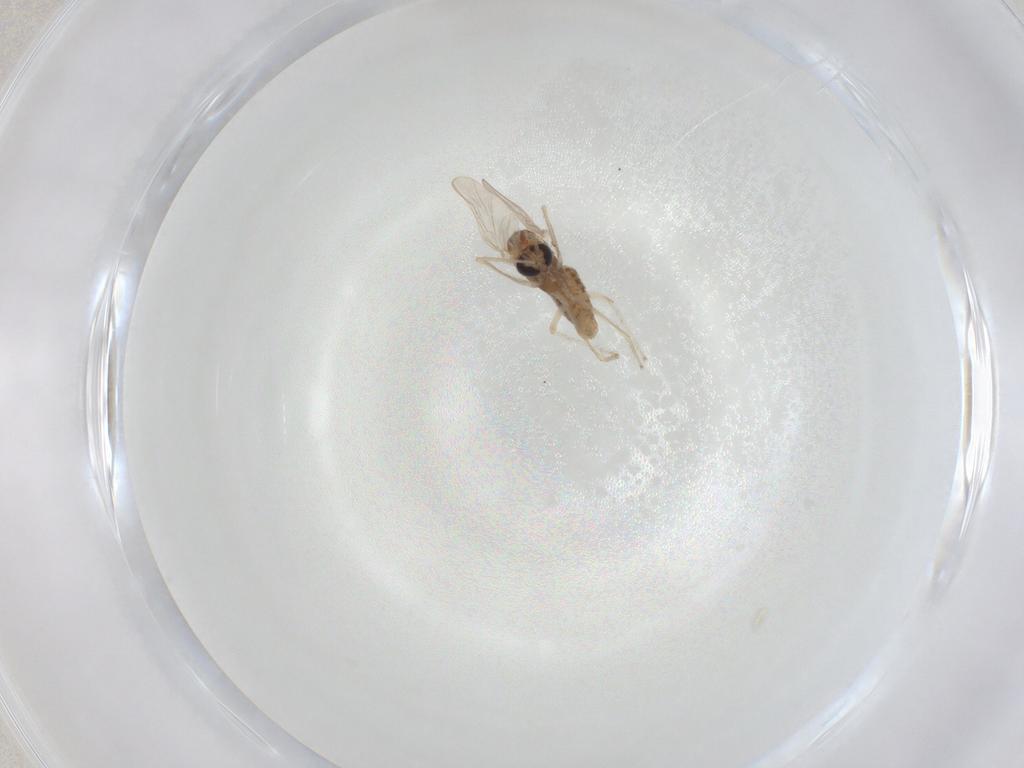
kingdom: Animalia
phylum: Arthropoda
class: Insecta
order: Diptera
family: Chironomidae
